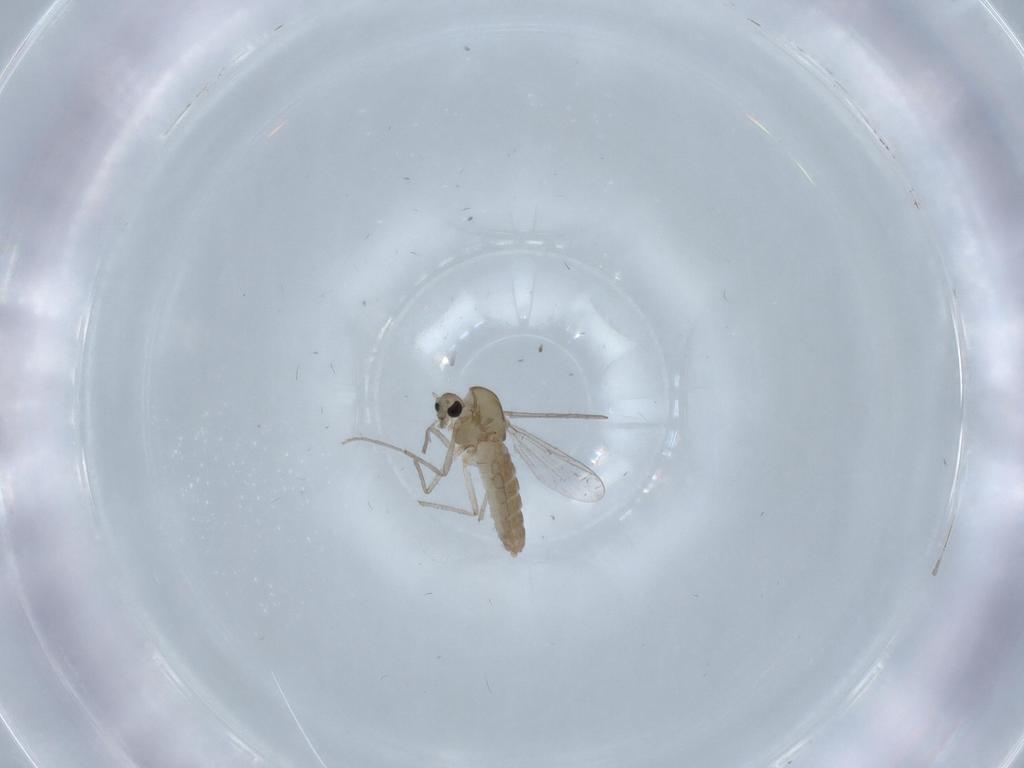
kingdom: Animalia
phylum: Arthropoda
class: Insecta
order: Diptera
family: Chironomidae
